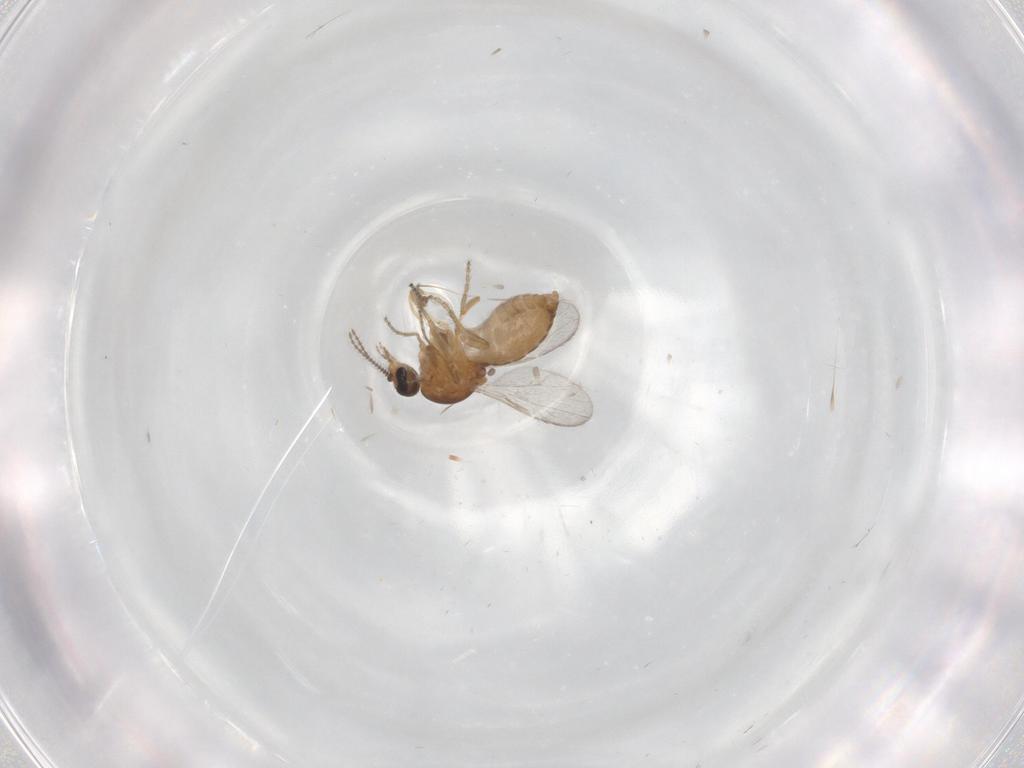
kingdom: Animalia
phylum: Arthropoda
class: Insecta
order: Diptera
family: Chironomidae
